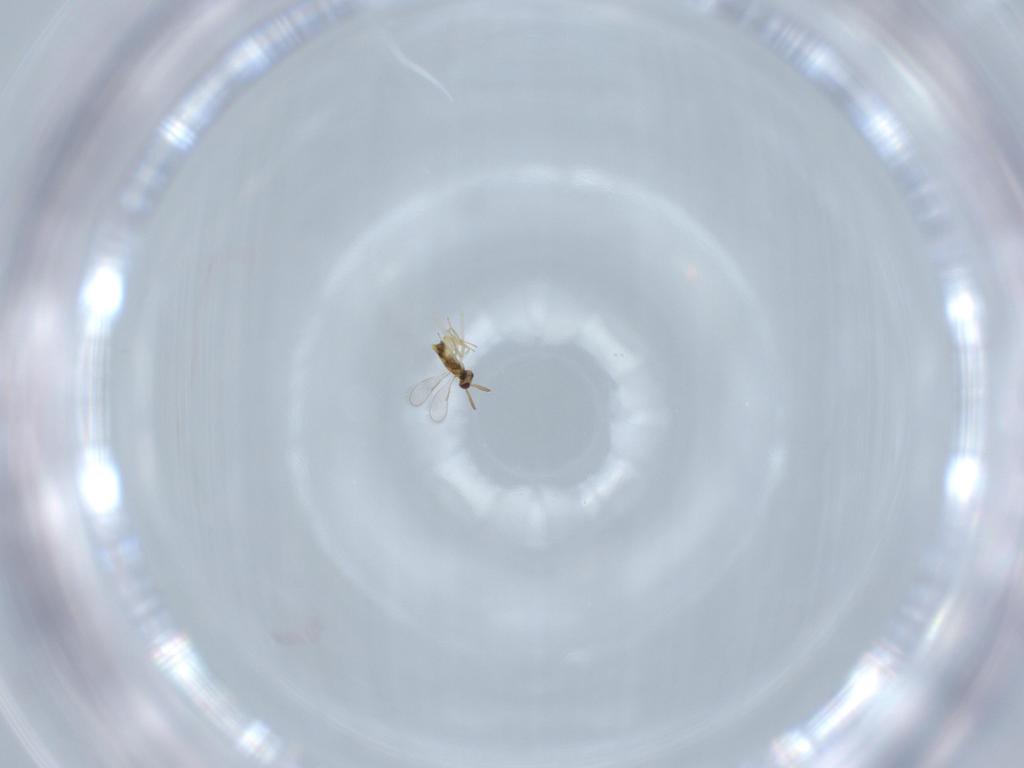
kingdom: Animalia
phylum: Arthropoda
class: Insecta
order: Hymenoptera
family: Aphelinidae
